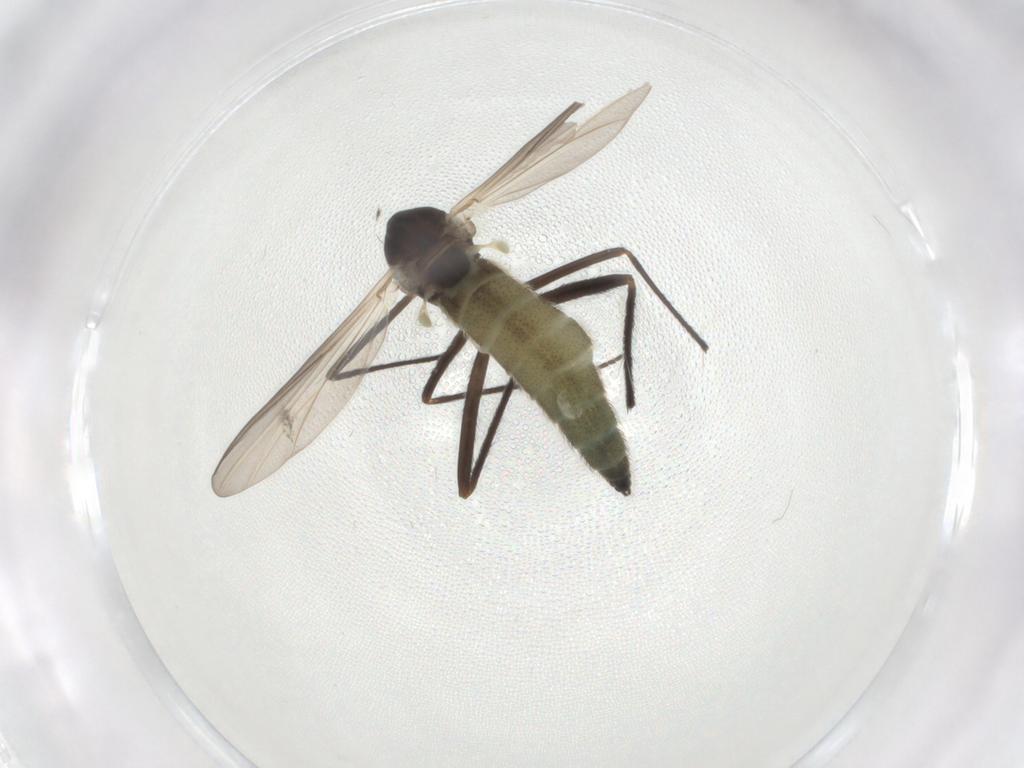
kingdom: Animalia
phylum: Arthropoda
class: Insecta
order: Diptera
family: Chironomidae
